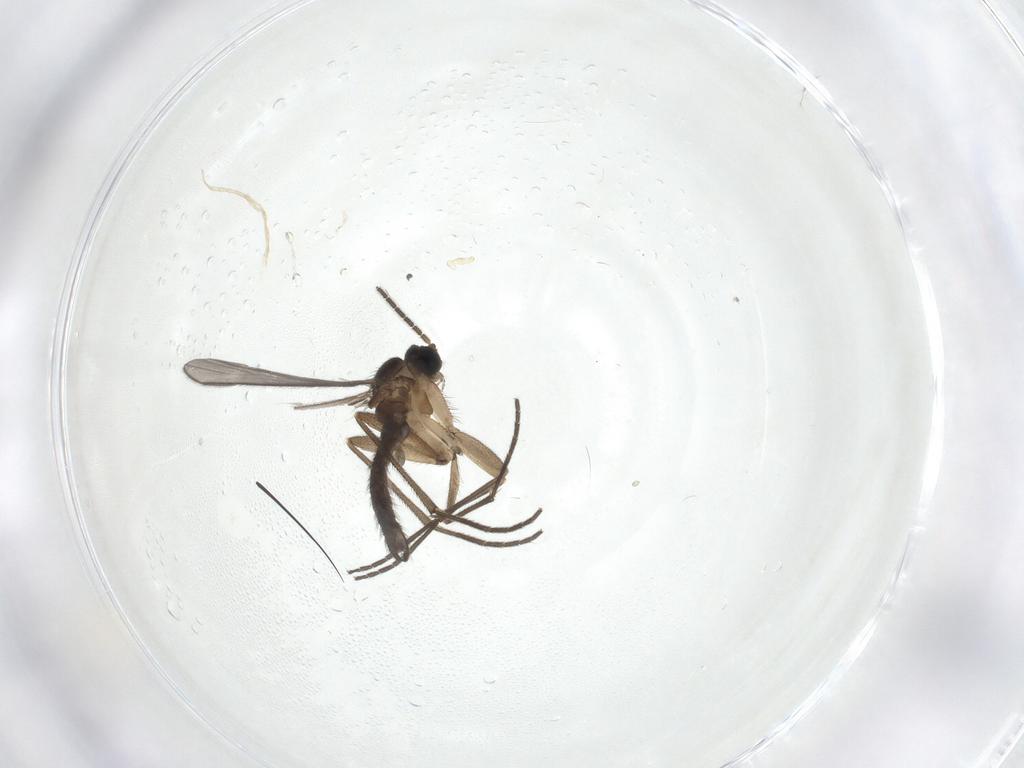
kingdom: Animalia
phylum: Arthropoda
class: Insecta
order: Diptera
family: Sciaridae
